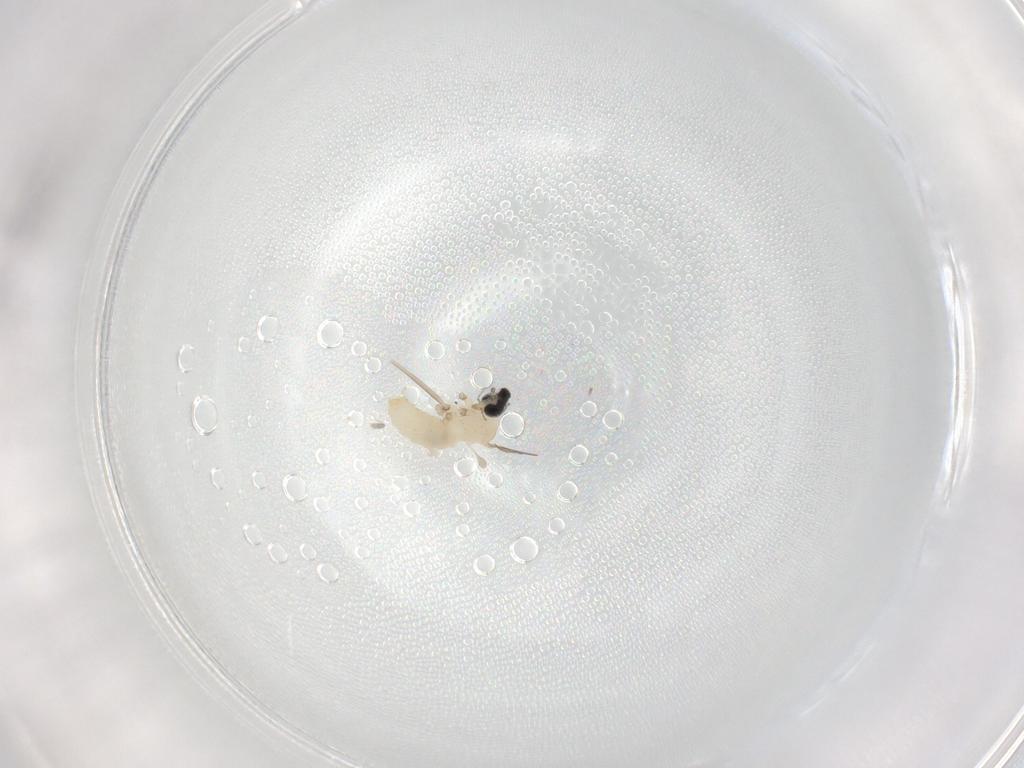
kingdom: Animalia
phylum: Arthropoda
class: Insecta
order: Diptera
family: Cecidomyiidae
